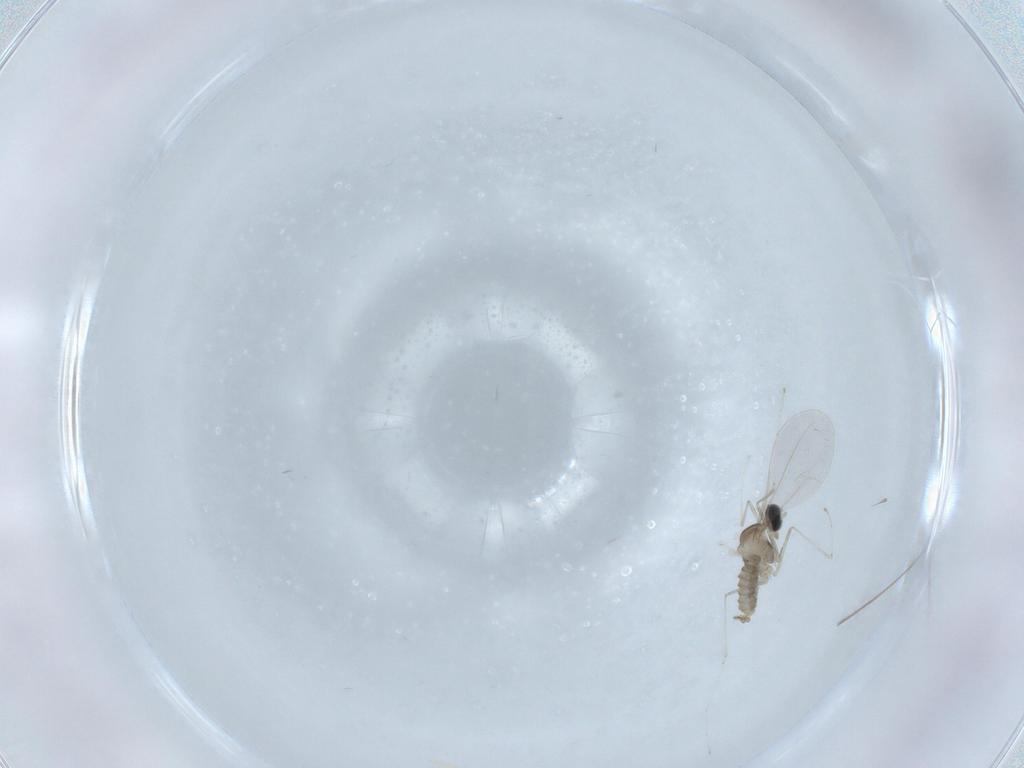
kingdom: Animalia
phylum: Arthropoda
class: Insecta
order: Diptera
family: Cecidomyiidae
